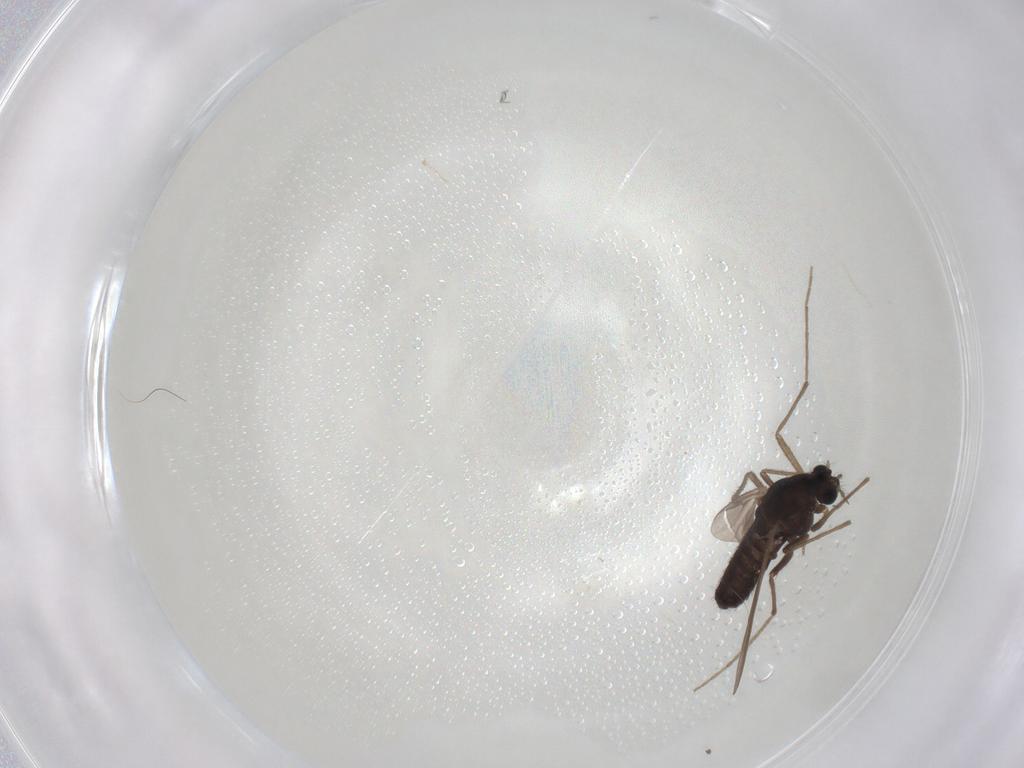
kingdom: Animalia
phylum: Arthropoda
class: Insecta
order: Diptera
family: Chironomidae
